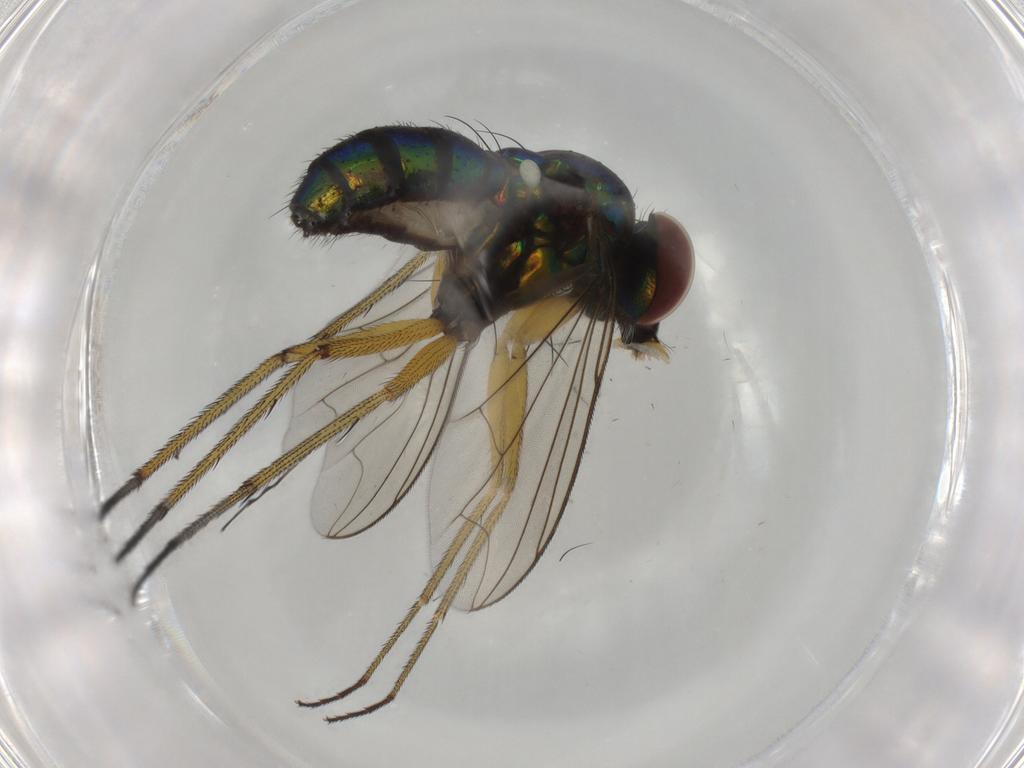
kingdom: Animalia
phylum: Arthropoda
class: Insecta
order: Diptera
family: Dolichopodidae
